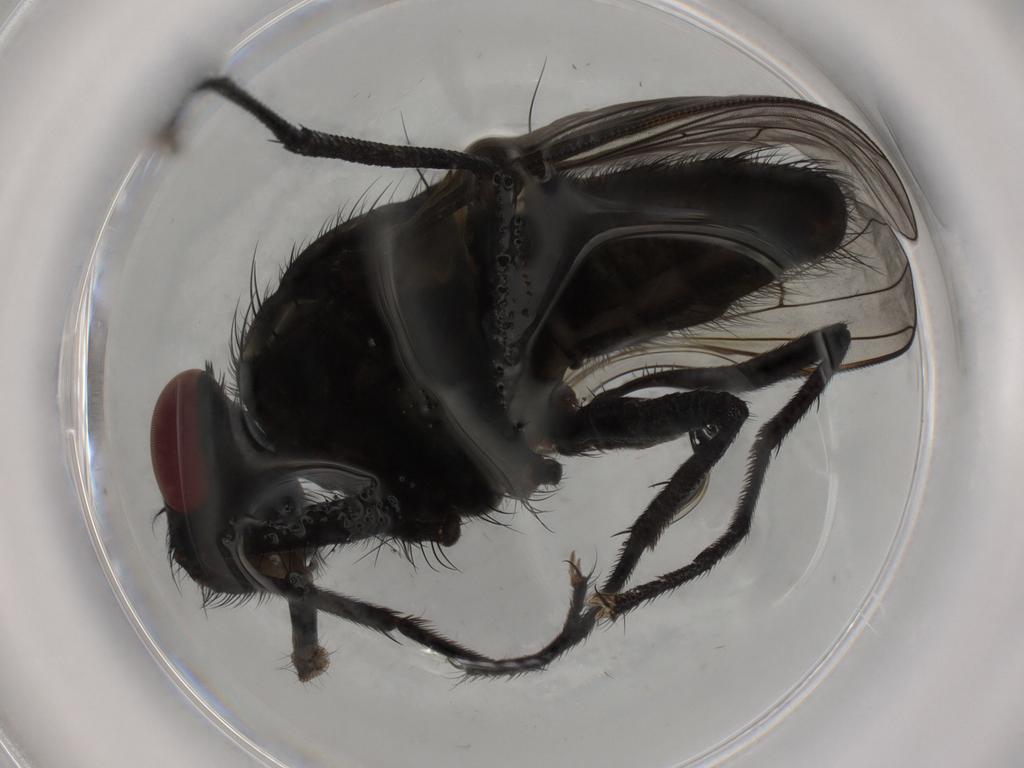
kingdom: Animalia
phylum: Arthropoda
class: Insecta
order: Diptera
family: Muscidae
